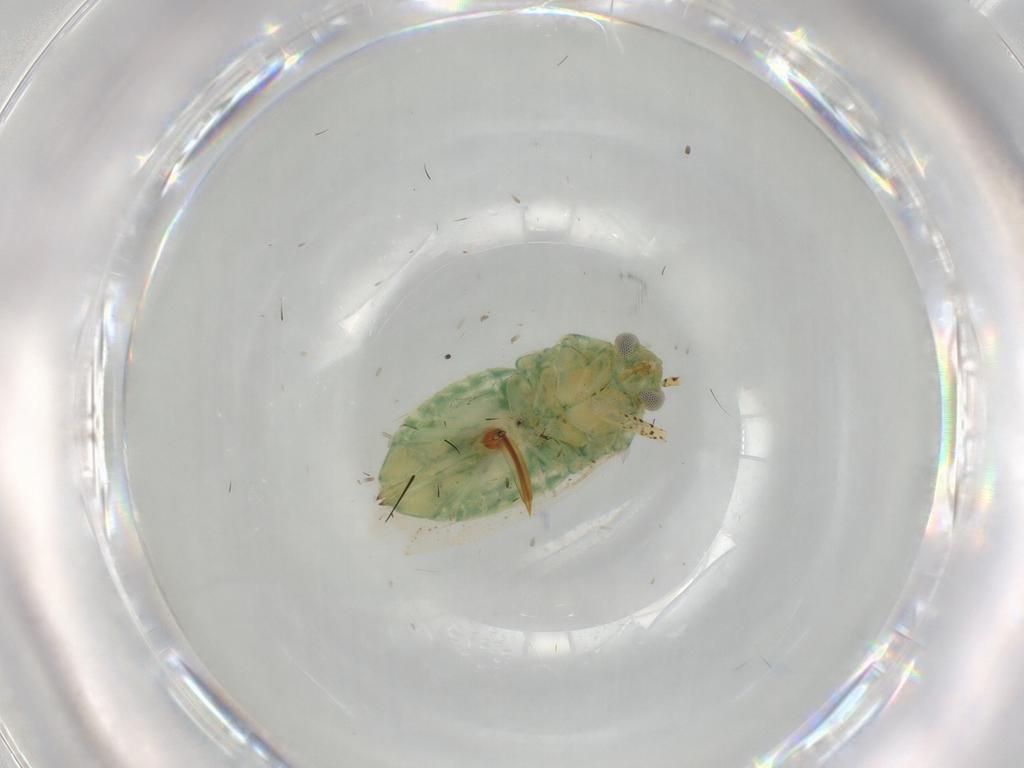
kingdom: Animalia
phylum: Arthropoda
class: Insecta
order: Hemiptera
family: Miridae
